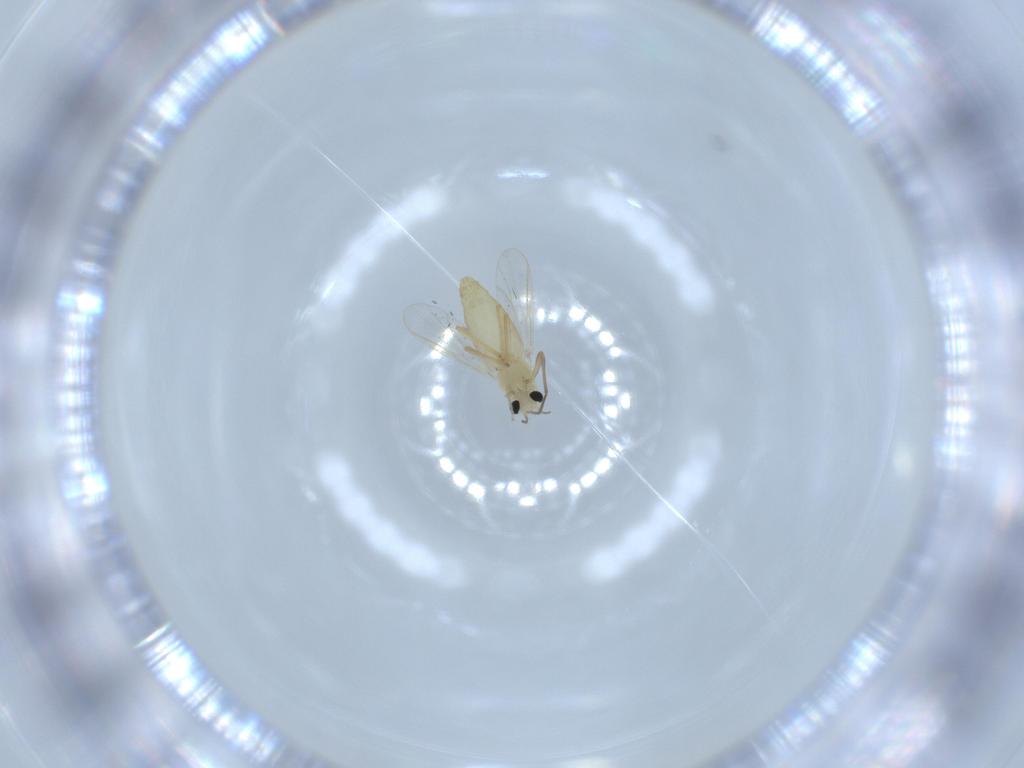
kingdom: Animalia
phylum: Arthropoda
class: Insecta
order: Diptera
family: Chironomidae
